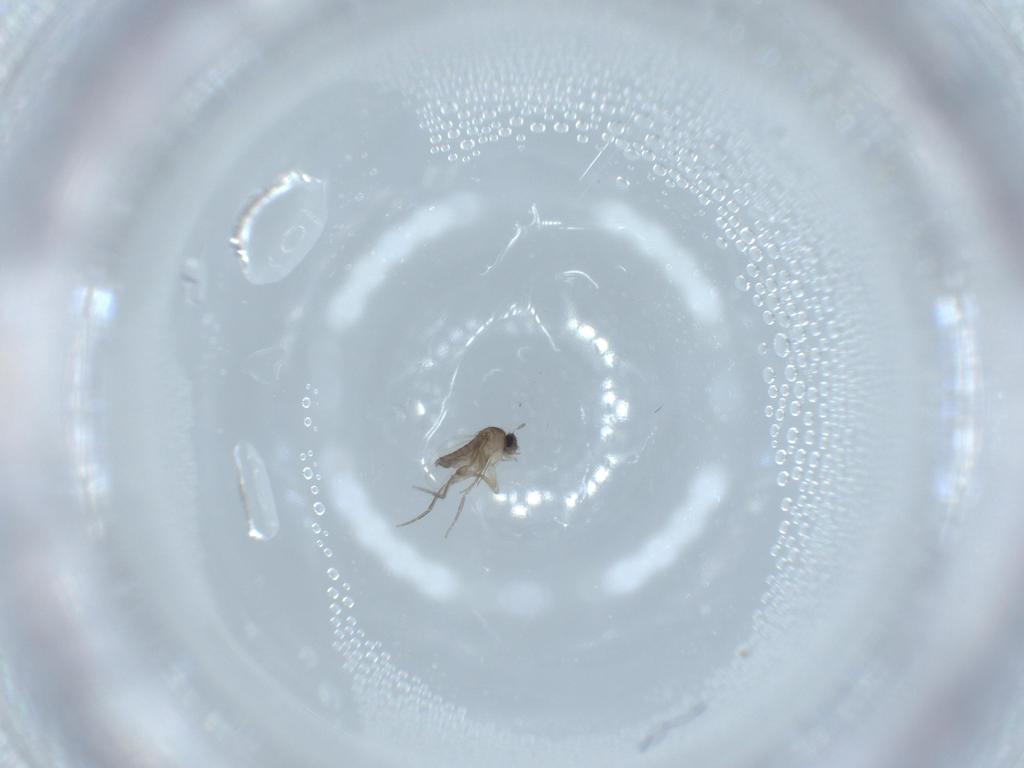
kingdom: Animalia
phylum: Arthropoda
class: Insecta
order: Diptera
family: Phoridae
